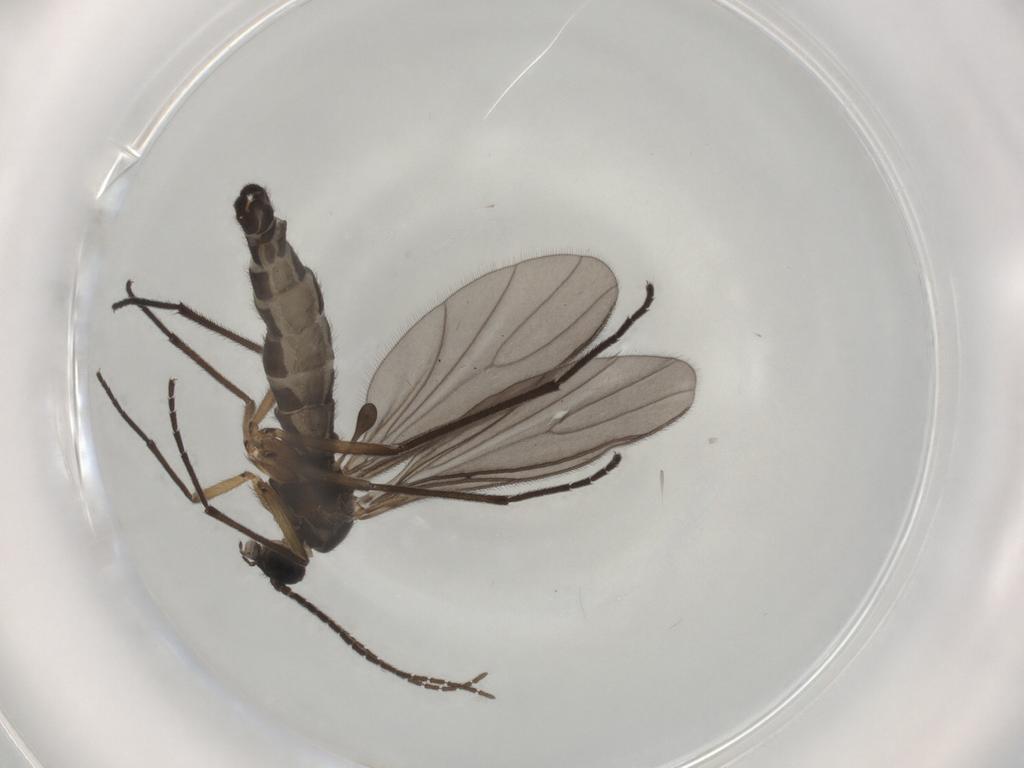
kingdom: Animalia
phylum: Arthropoda
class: Insecta
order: Diptera
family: Sciaridae
